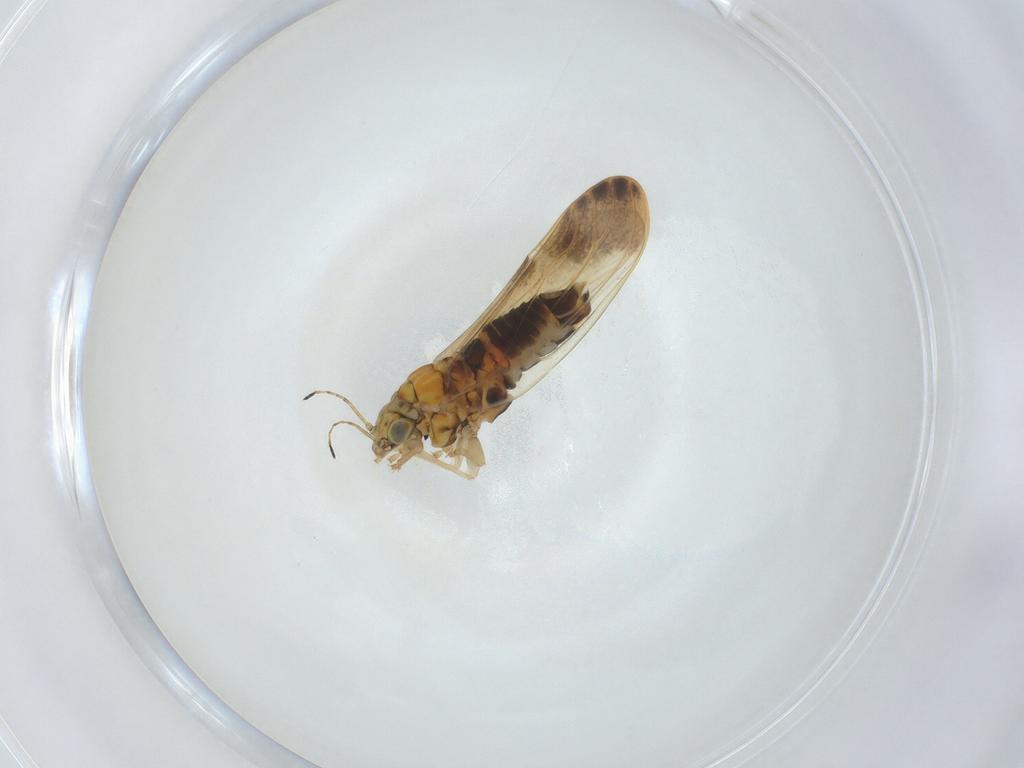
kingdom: Animalia
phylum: Arthropoda
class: Insecta
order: Hemiptera
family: Aphalaridae
